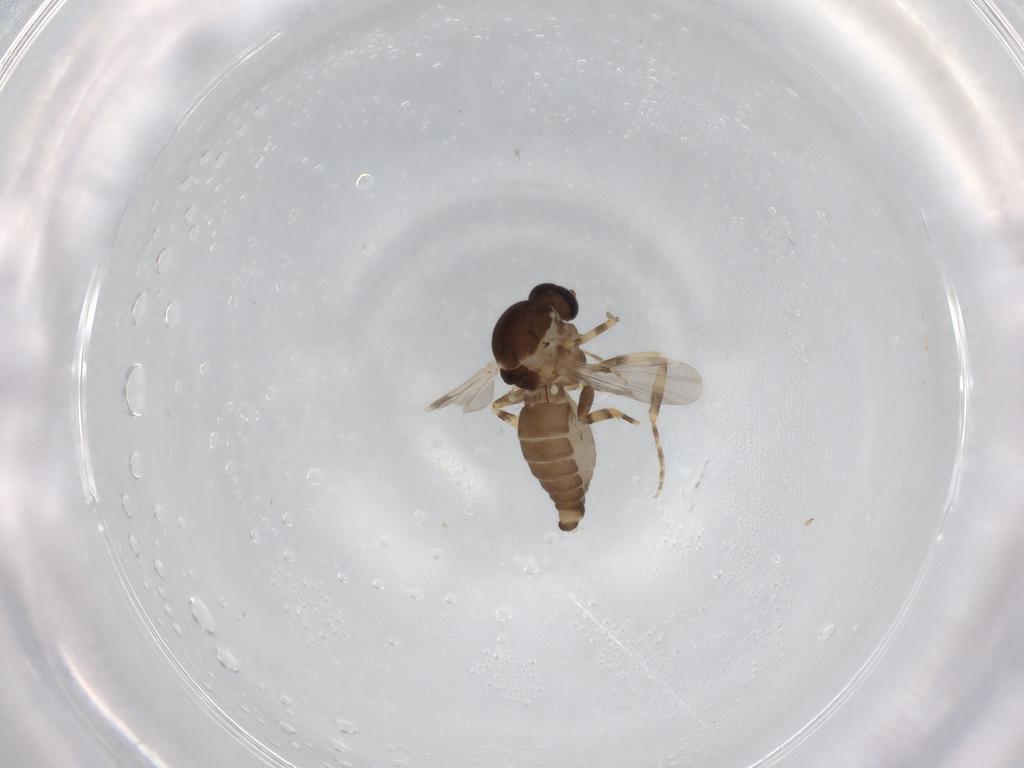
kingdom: Animalia
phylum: Arthropoda
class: Insecta
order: Diptera
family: Ceratopogonidae
